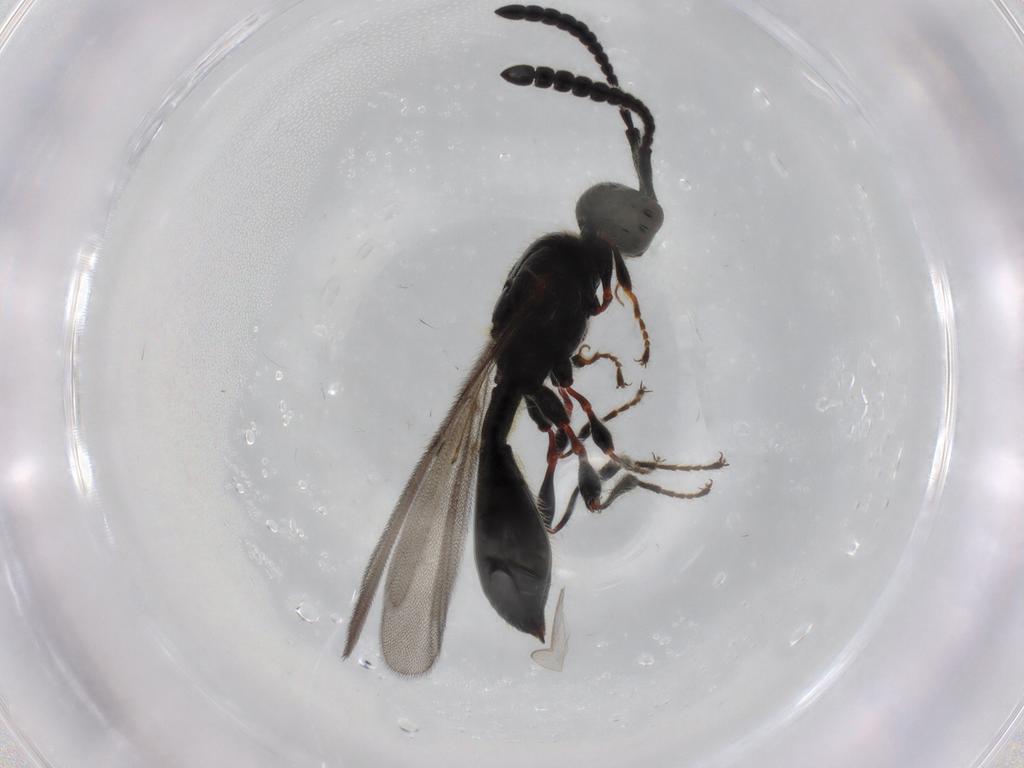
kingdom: Animalia
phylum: Arthropoda
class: Insecta
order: Hymenoptera
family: Diapriidae
